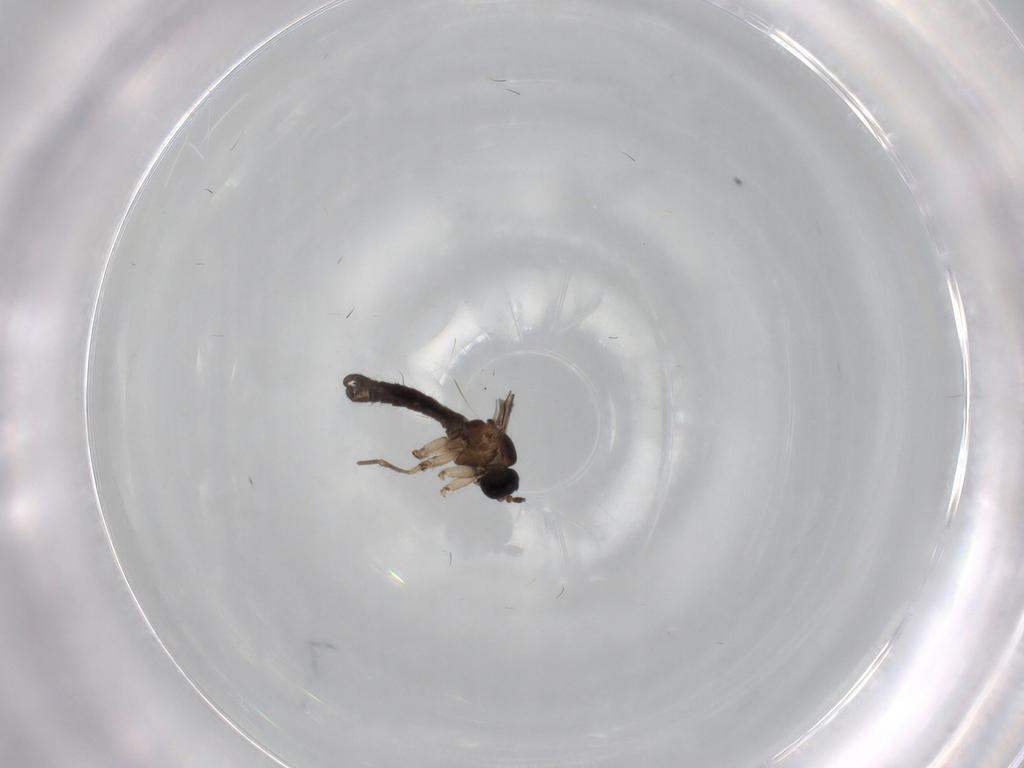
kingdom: Animalia
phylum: Arthropoda
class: Insecta
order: Diptera
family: Sciaridae
